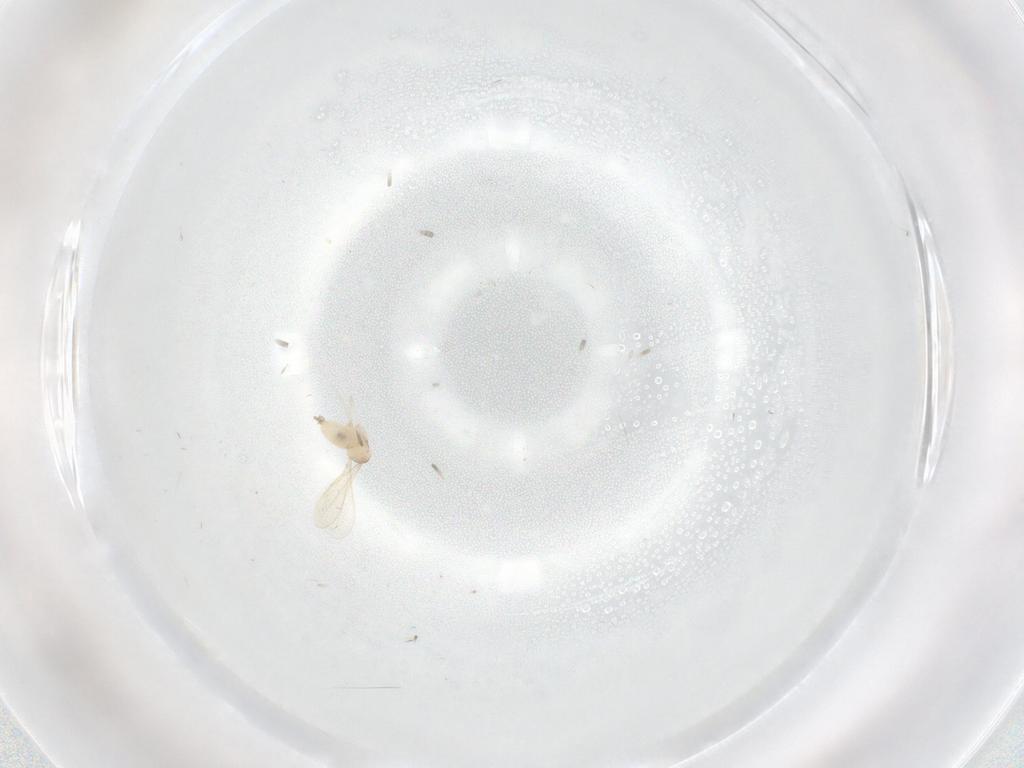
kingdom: Animalia
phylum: Arthropoda
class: Insecta
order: Diptera
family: Cecidomyiidae
